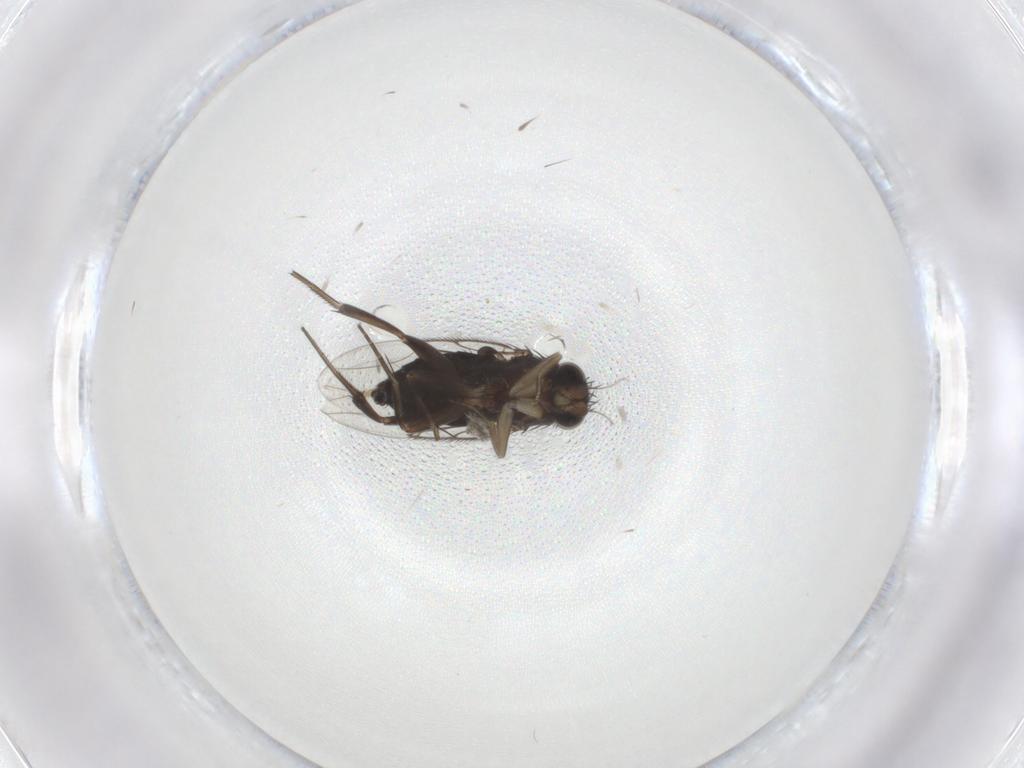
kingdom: Animalia
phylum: Arthropoda
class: Insecta
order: Diptera
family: Phoridae
